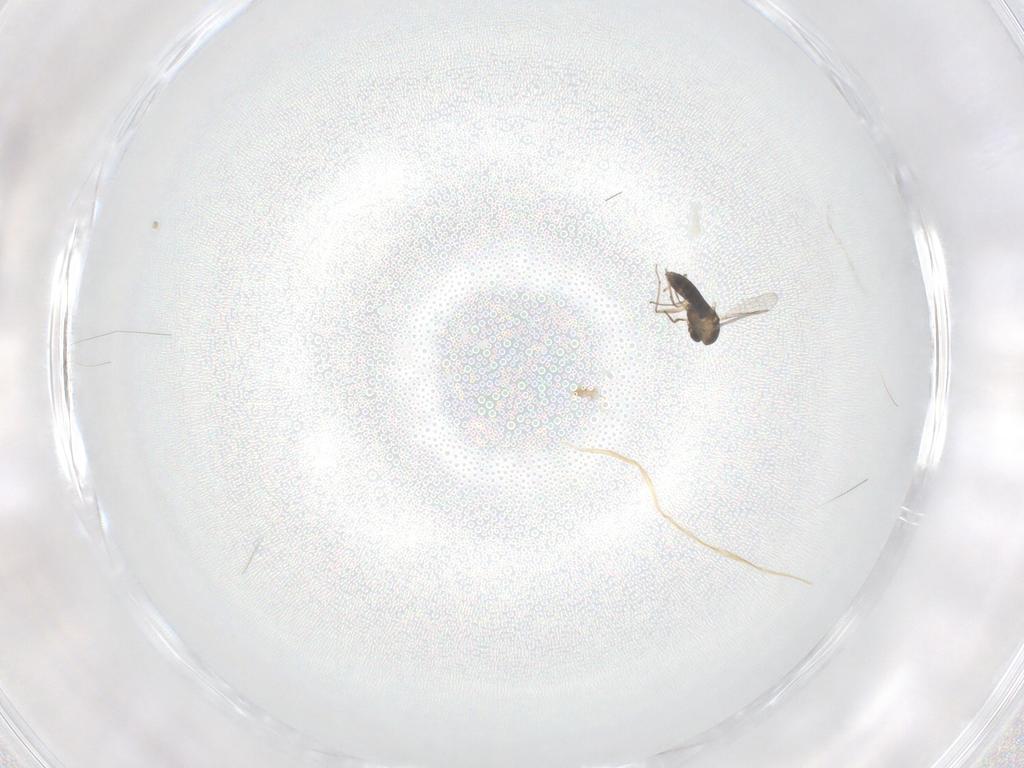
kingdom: Animalia
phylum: Arthropoda
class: Insecta
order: Diptera
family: Chironomidae
